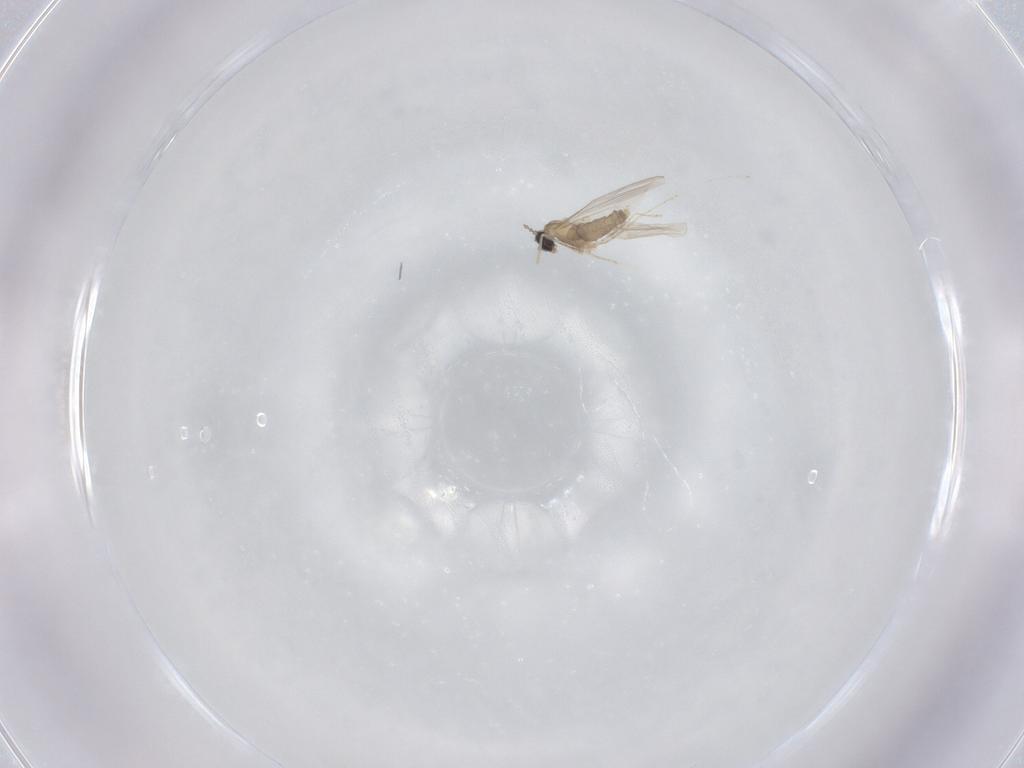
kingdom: Animalia
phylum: Arthropoda
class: Insecta
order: Diptera
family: Cecidomyiidae
